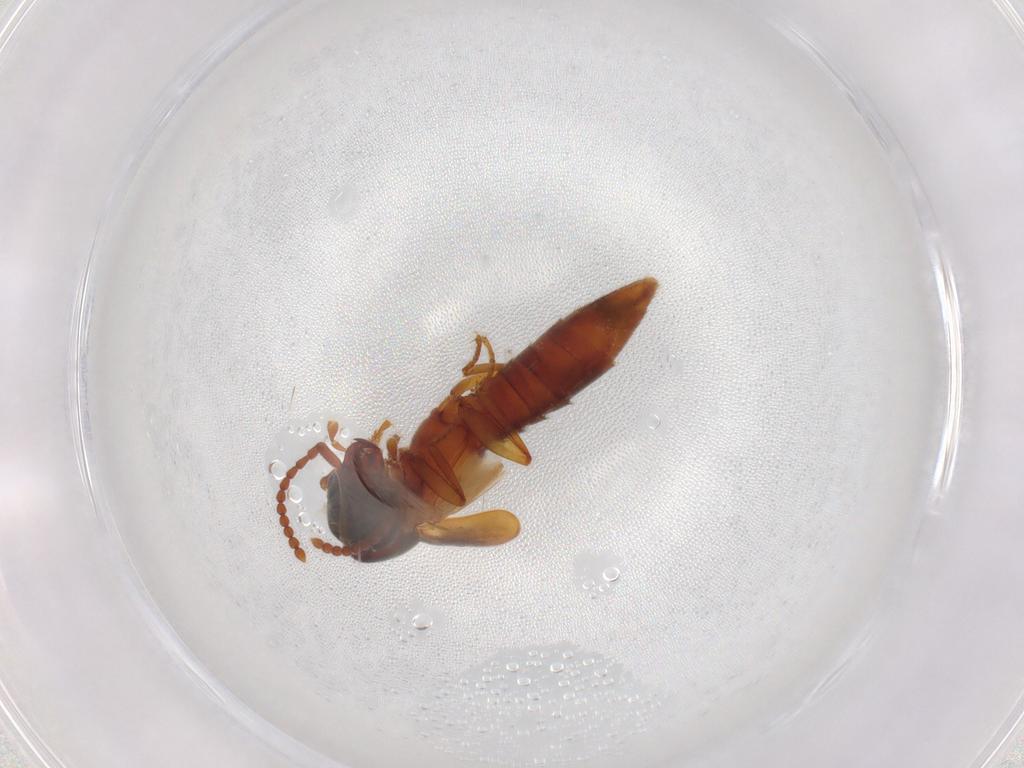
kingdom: Animalia
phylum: Arthropoda
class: Insecta
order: Coleoptera
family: Staphylinidae
